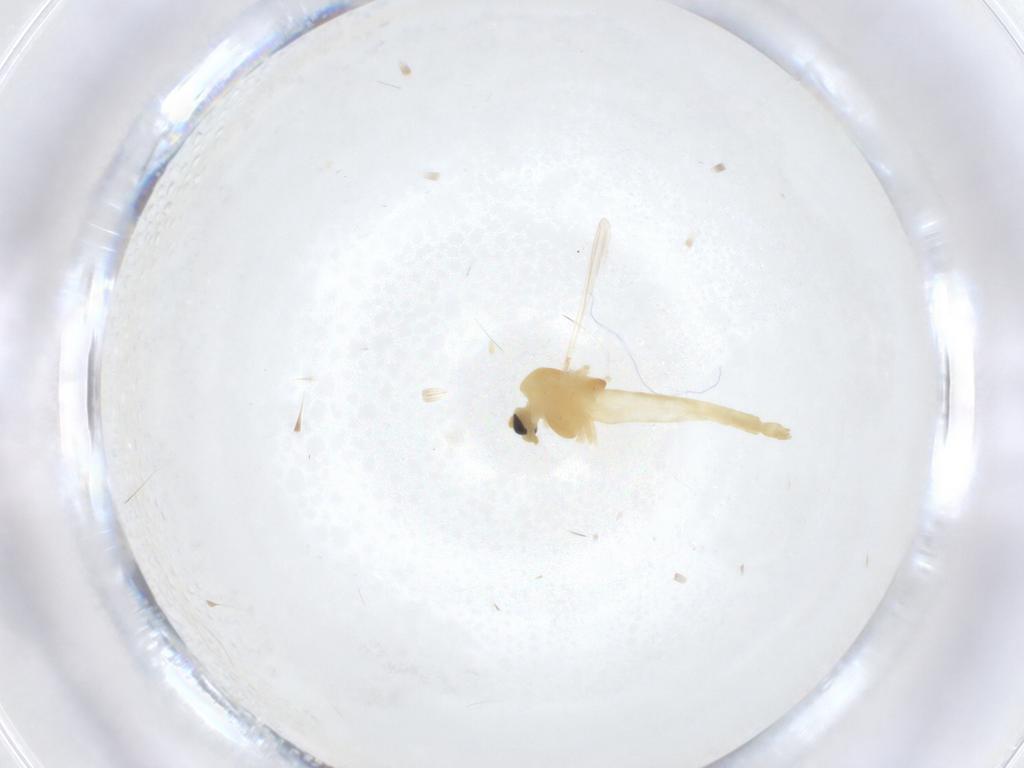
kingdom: Animalia
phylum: Arthropoda
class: Insecta
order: Diptera
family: Chironomidae
